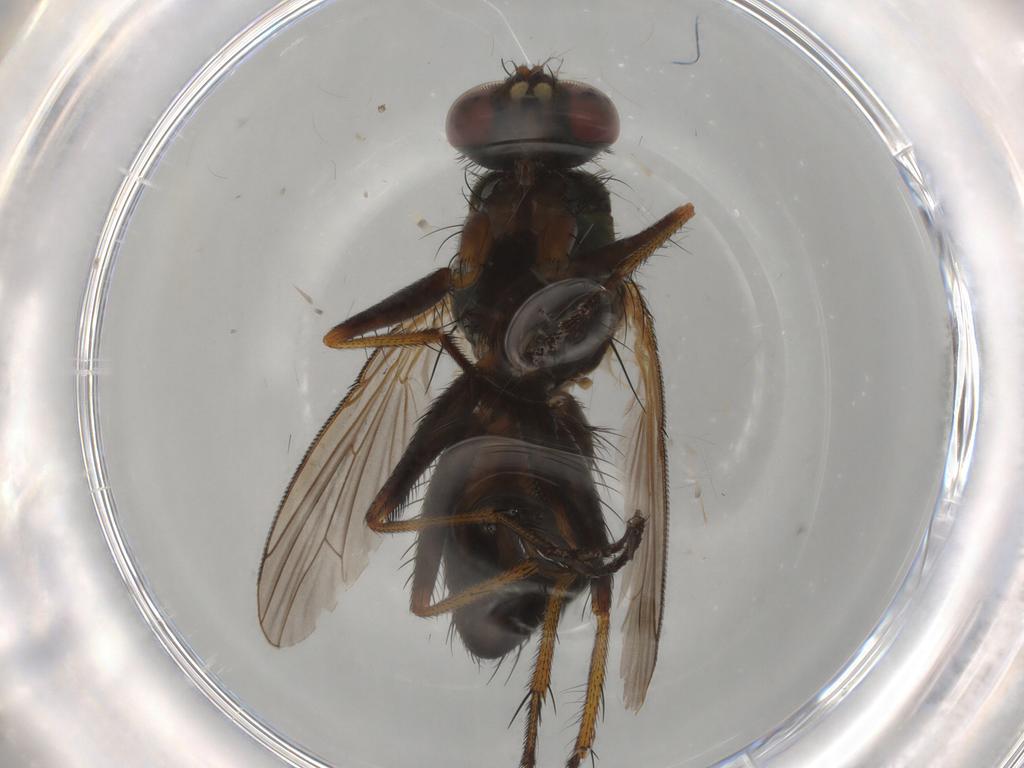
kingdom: Animalia
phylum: Arthropoda
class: Insecta
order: Diptera
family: Muscidae
